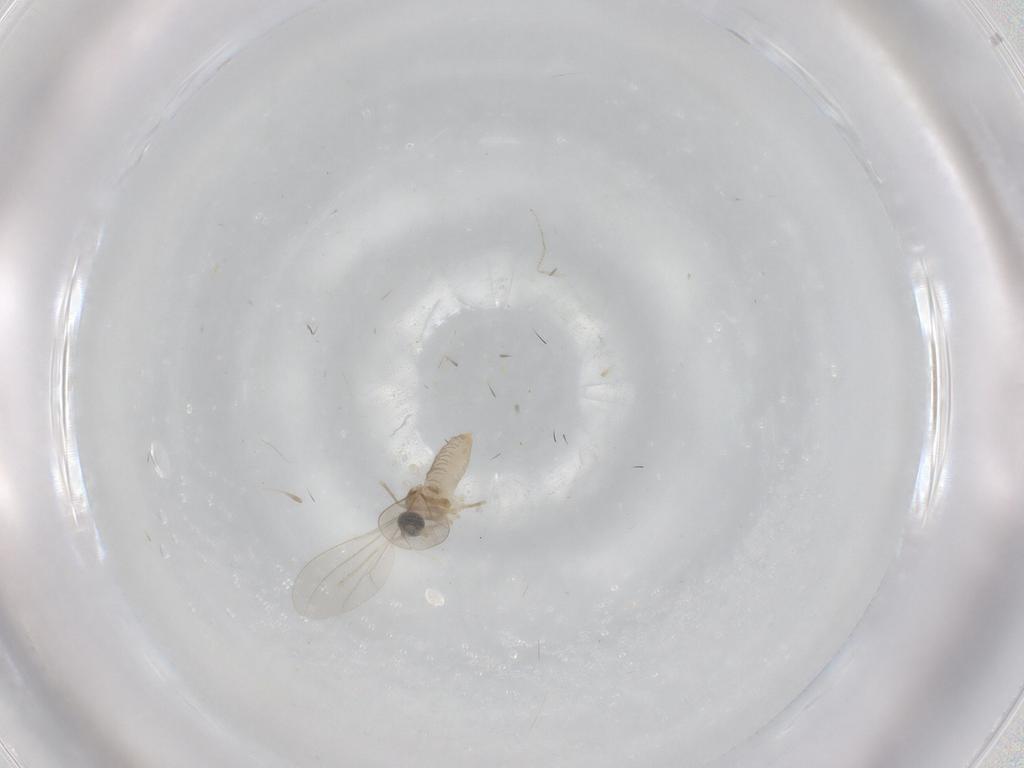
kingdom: Animalia
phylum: Arthropoda
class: Insecta
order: Diptera
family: Cecidomyiidae
